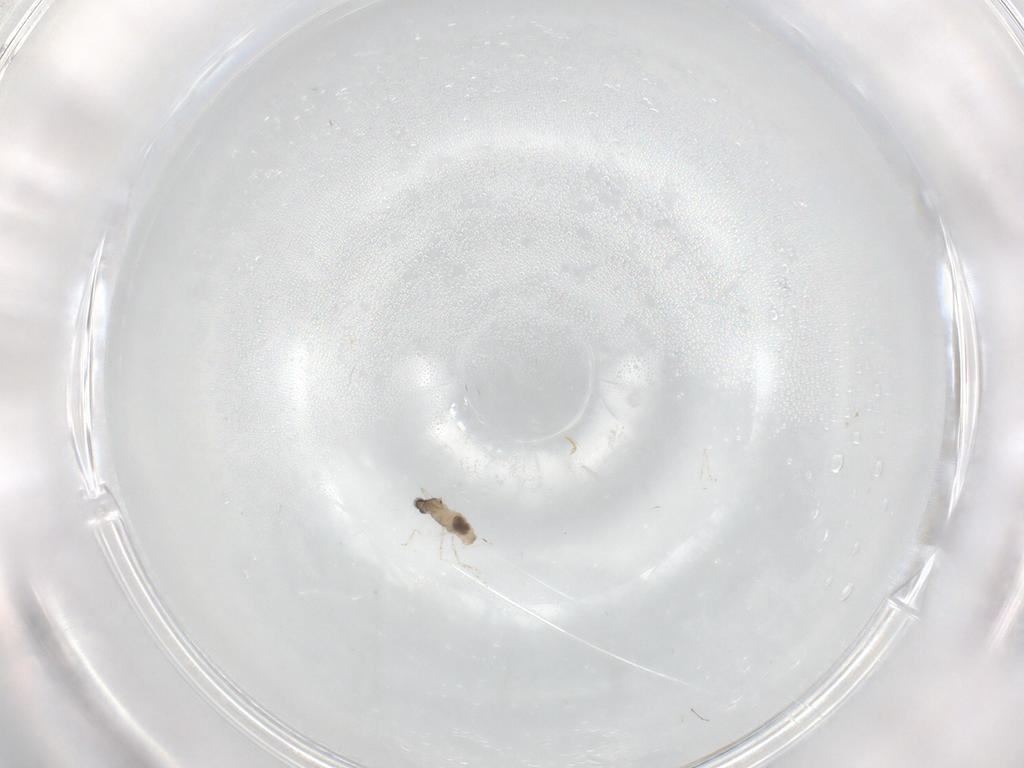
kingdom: Animalia
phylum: Arthropoda
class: Insecta
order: Diptera
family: Cecidomyiidae
